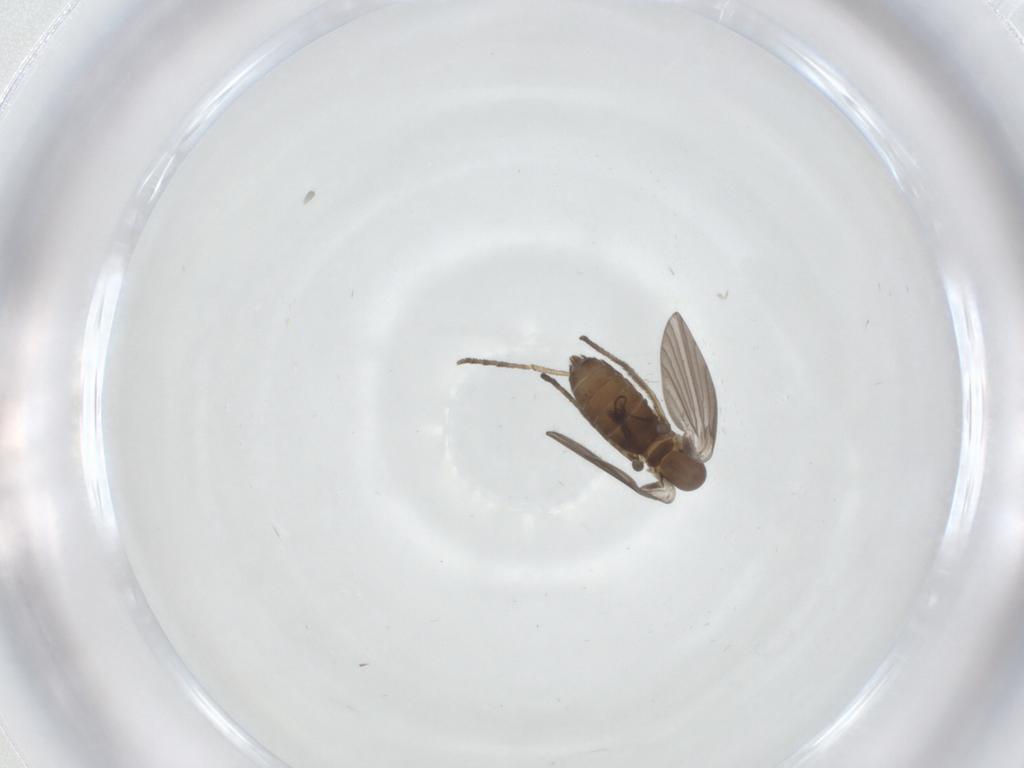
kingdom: Animalia
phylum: Arthropoda
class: Insecta
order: Diptera
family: Psychodidae
